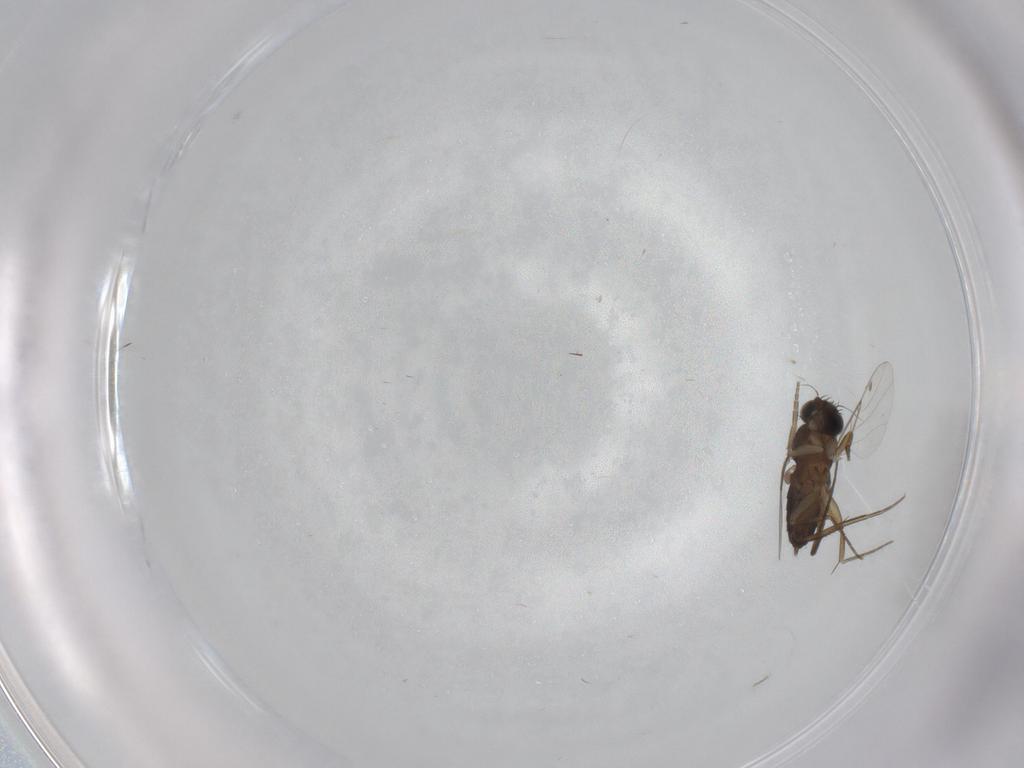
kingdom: Animalia
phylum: Arthropoda
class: Insecta
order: Diptera
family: Phoridae
